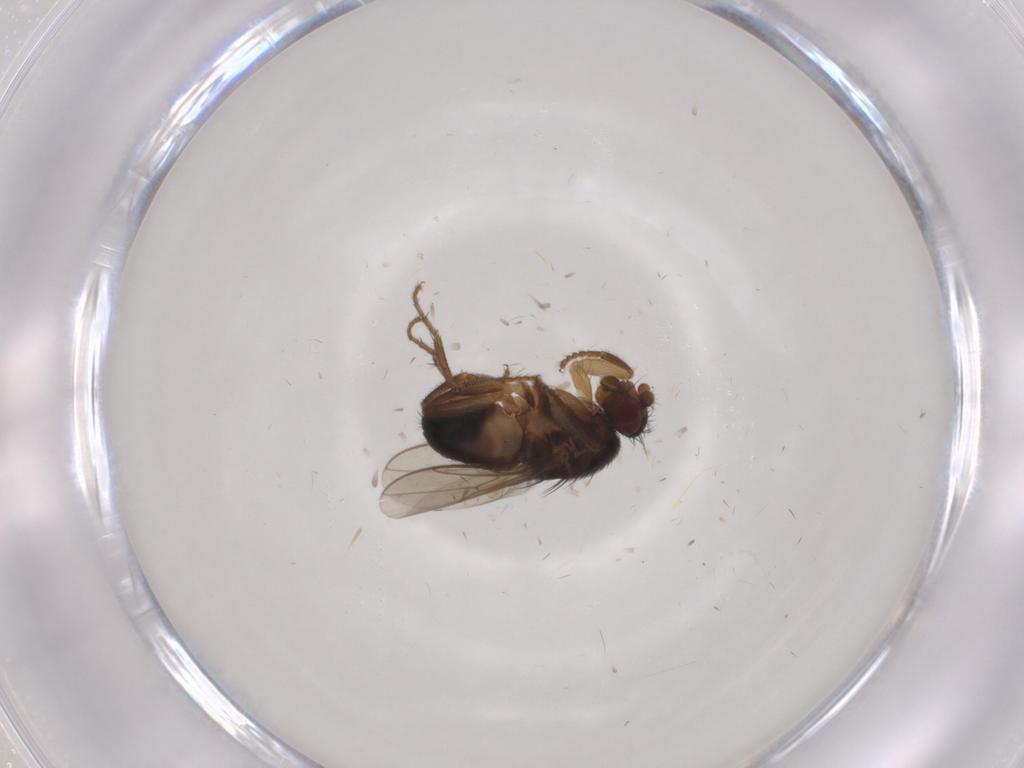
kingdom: Animalia
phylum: Arthropoda
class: Insecta
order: Diptera
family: Sphaeroceridae
